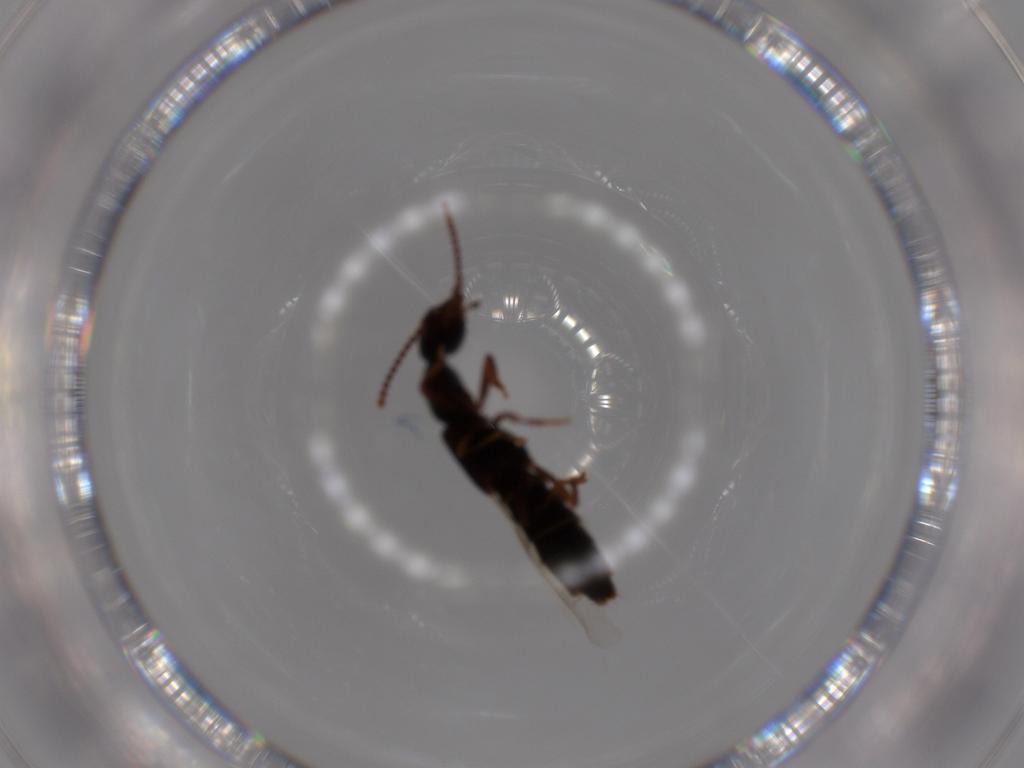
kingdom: Animalia
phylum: Arthropoda
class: Insecta
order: Coleoptera
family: Staphylinidae
